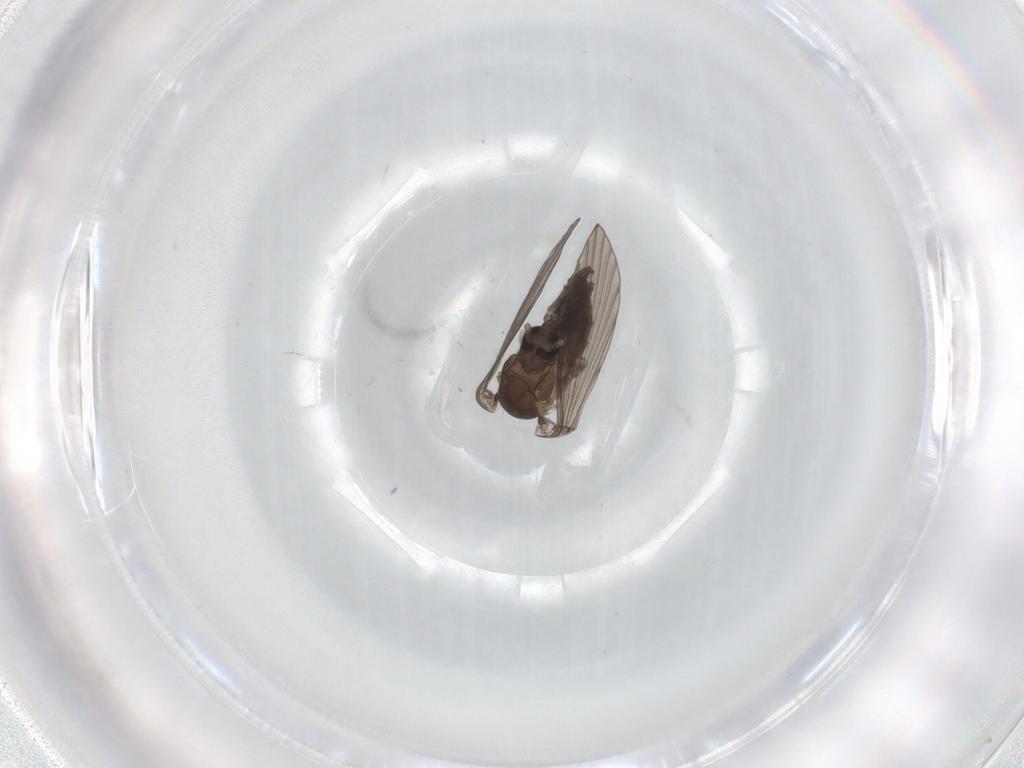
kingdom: Animalia
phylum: Arthropoda
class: Insecta
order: Diptera
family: Psychodidae
